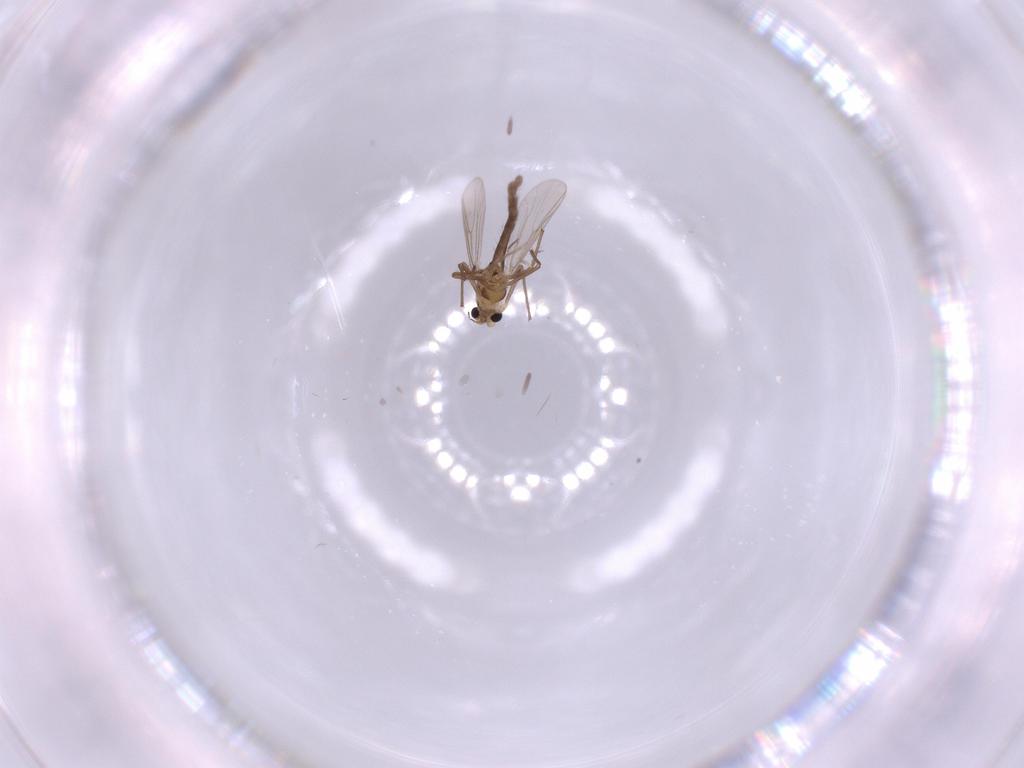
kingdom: Animalia
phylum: Arthropoda
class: Insecta
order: Diptera
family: Chironomidae
